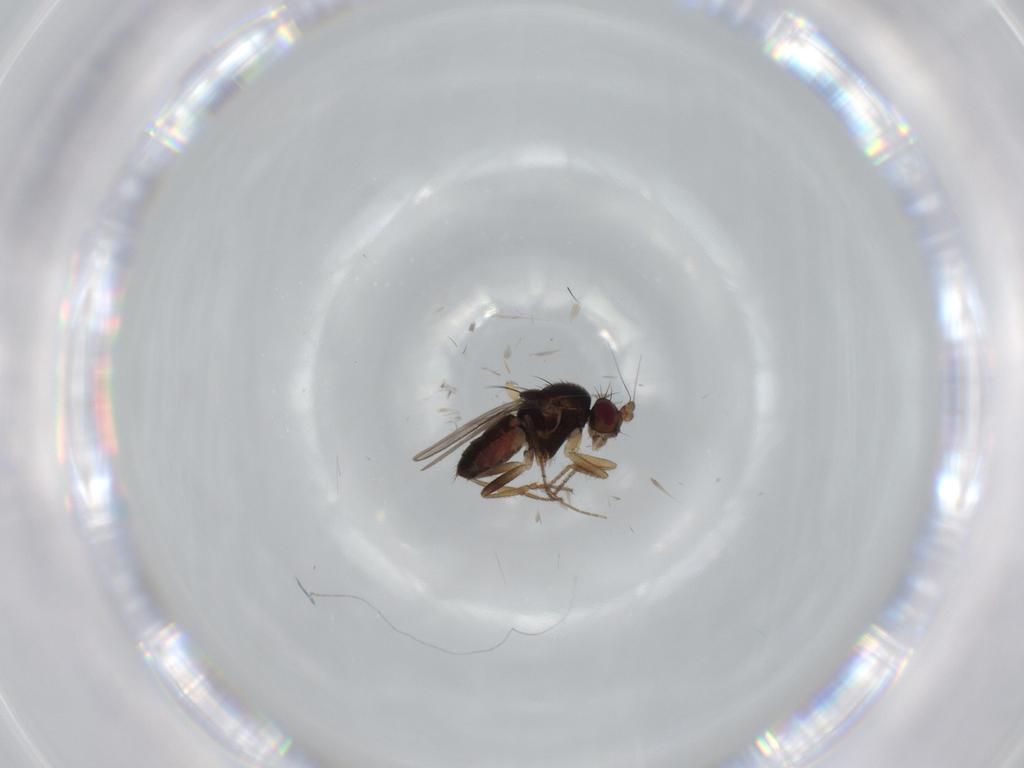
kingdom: Animalia
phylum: Arthropoda
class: Insecta
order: Diptera
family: Sphaeroceridae
